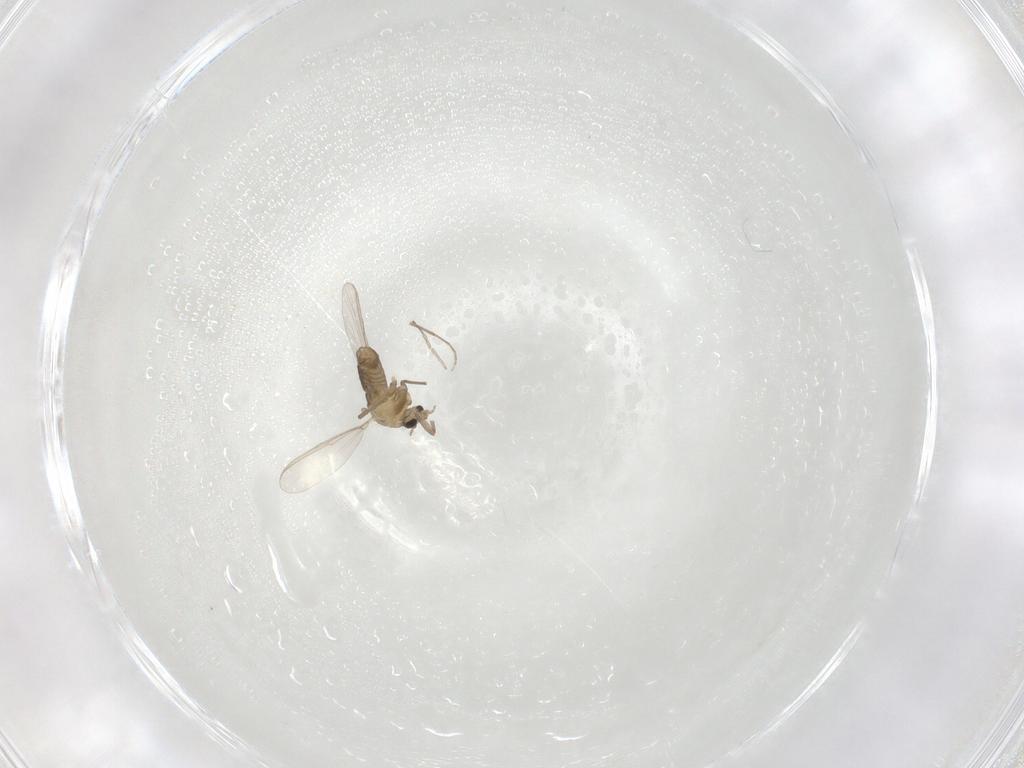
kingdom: Animalia
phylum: Arthropoda
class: Insecta
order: Diptera
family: Chironomidae
